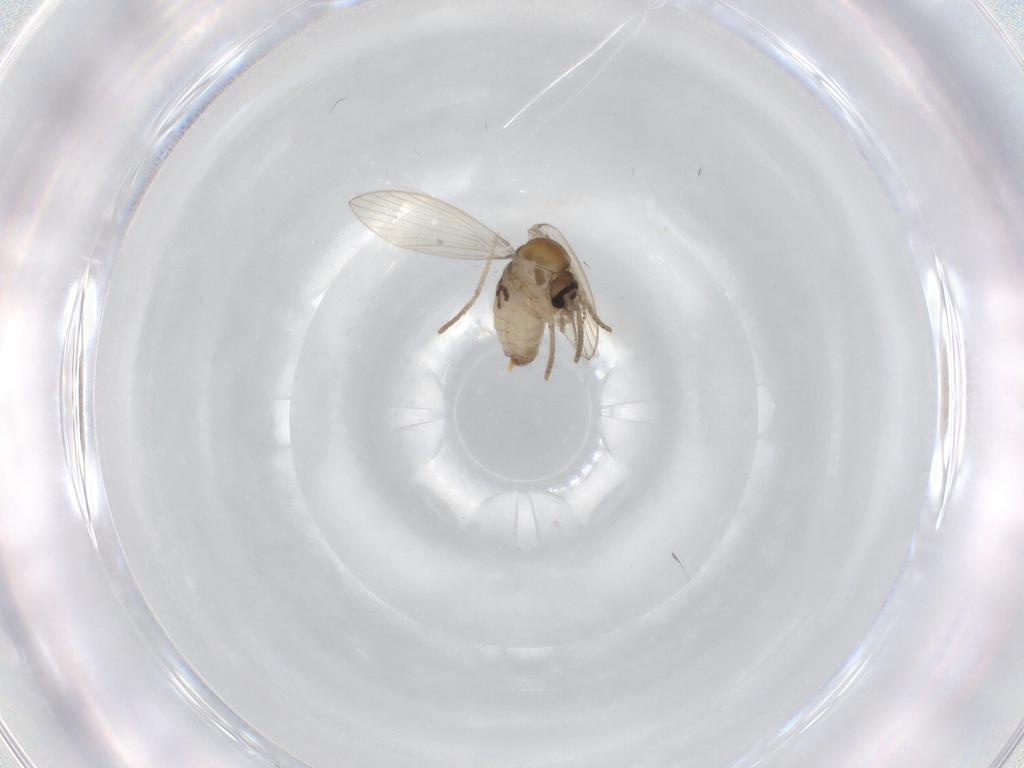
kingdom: Animalia
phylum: Arthropoda
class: Insecta
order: Diptera
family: Psychodidae
